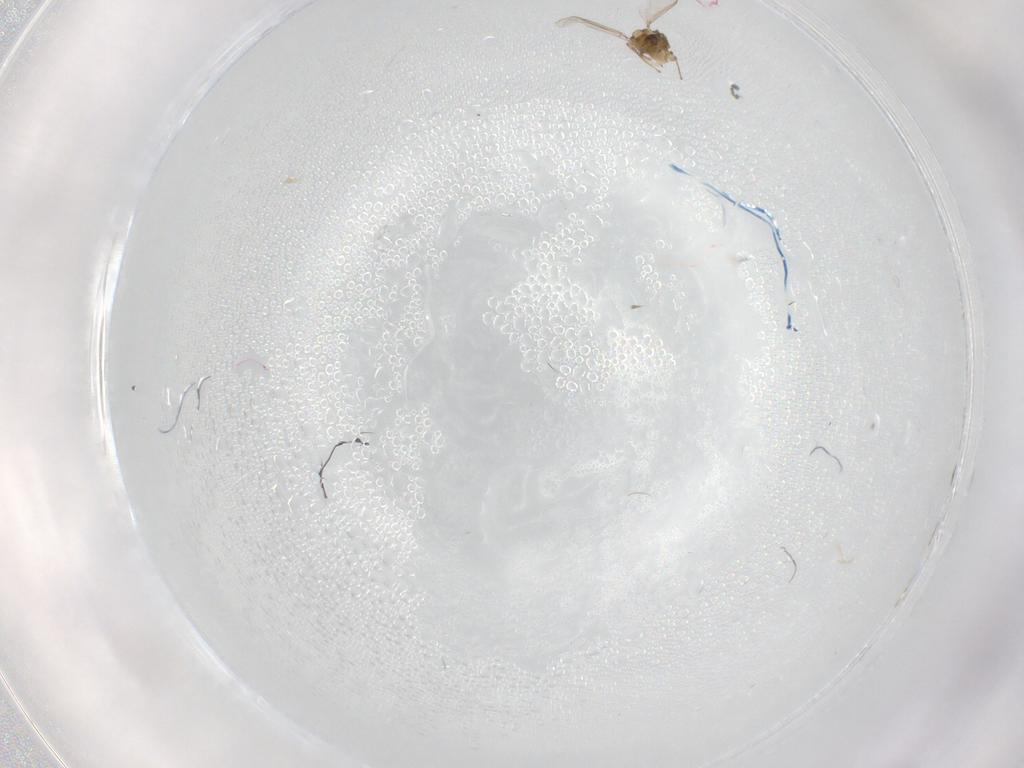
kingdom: Animalia
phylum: Arthropoda
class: Insecta
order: Diptera
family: Chironomidae
